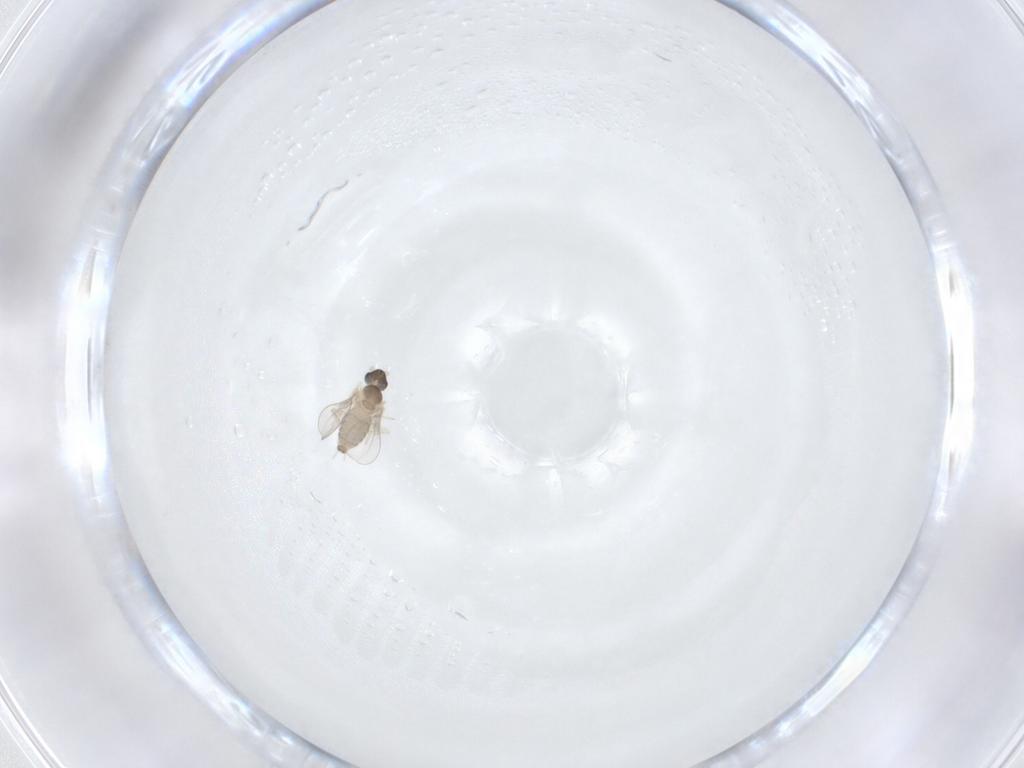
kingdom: Animalia
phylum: Arthropoda
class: Insecta
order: Diptera
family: Cecidomyiidae
